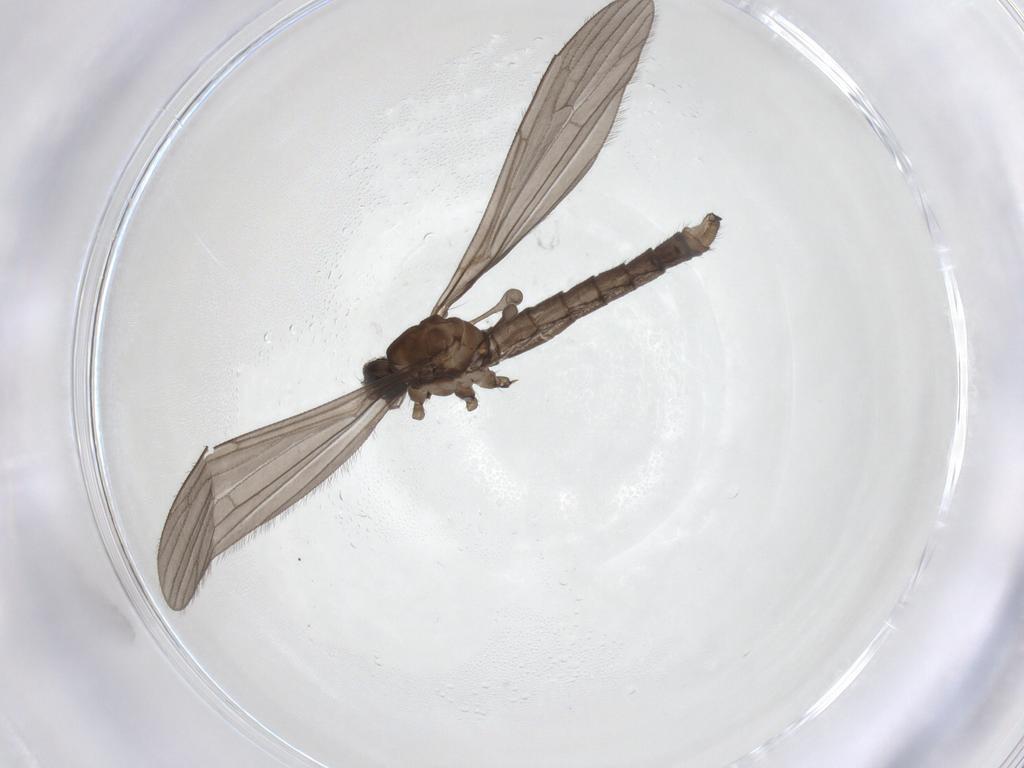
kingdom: Animalia
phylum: Arthropoda
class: Insecta
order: Diptera
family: Drosophilidae
